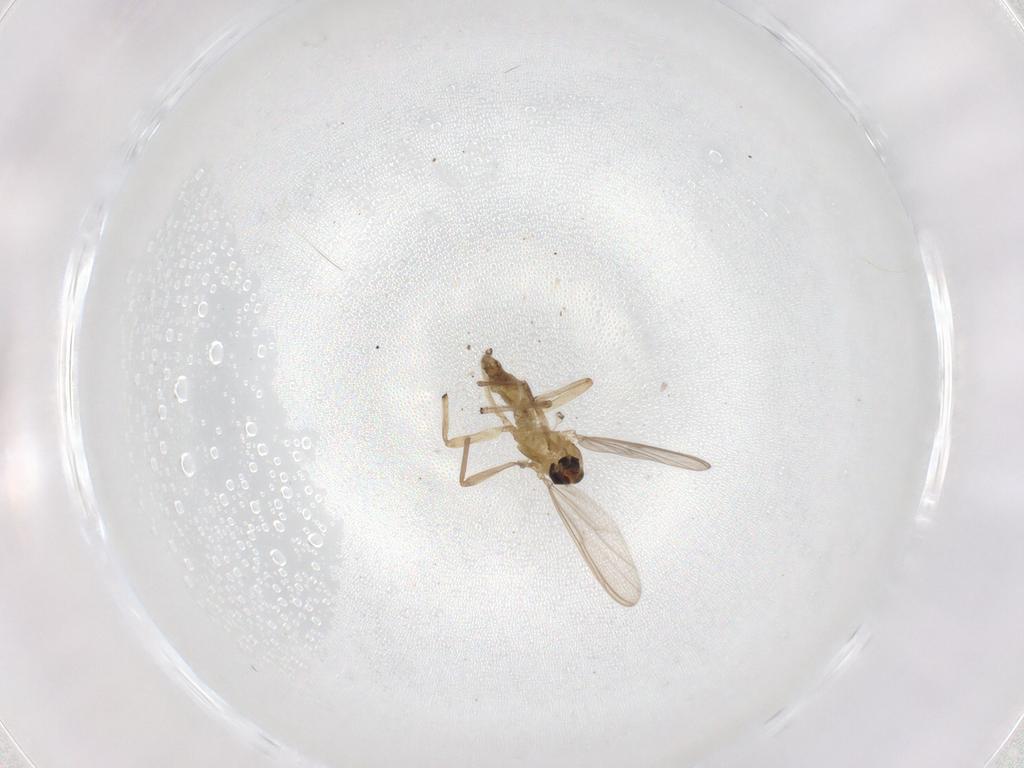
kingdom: Animalia
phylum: Arthropoda
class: Insecta
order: Diptera
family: Chironomidae
